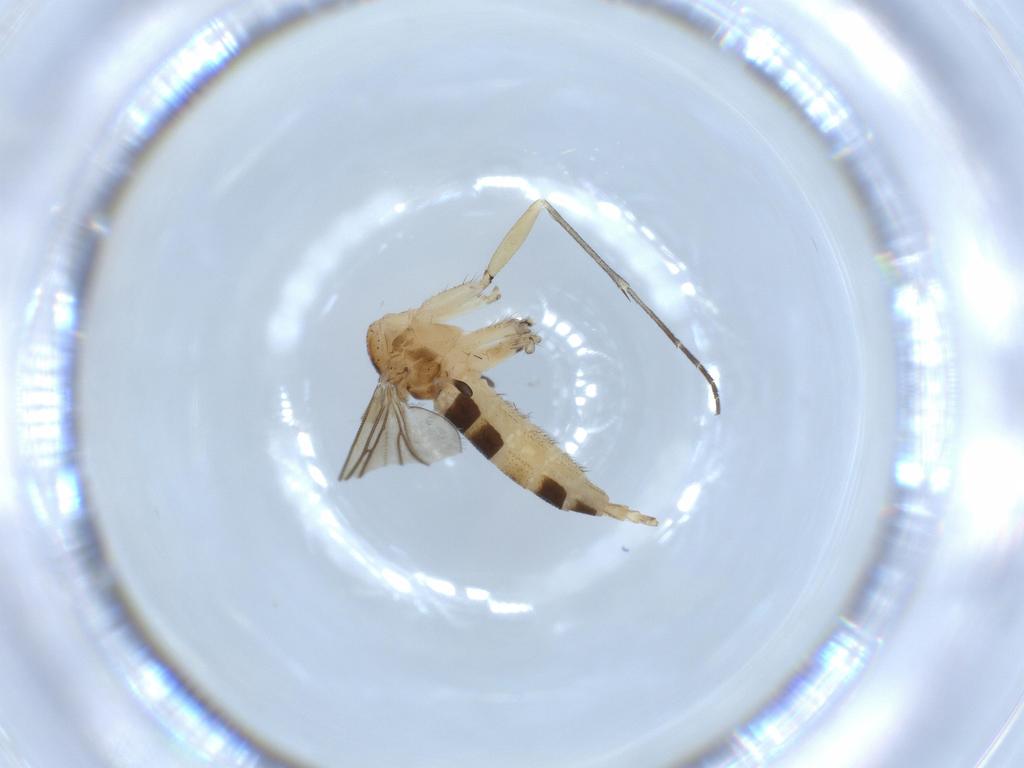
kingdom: Animalia
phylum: Arthropoda
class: Insecta
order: Diptera
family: Sciaridae
